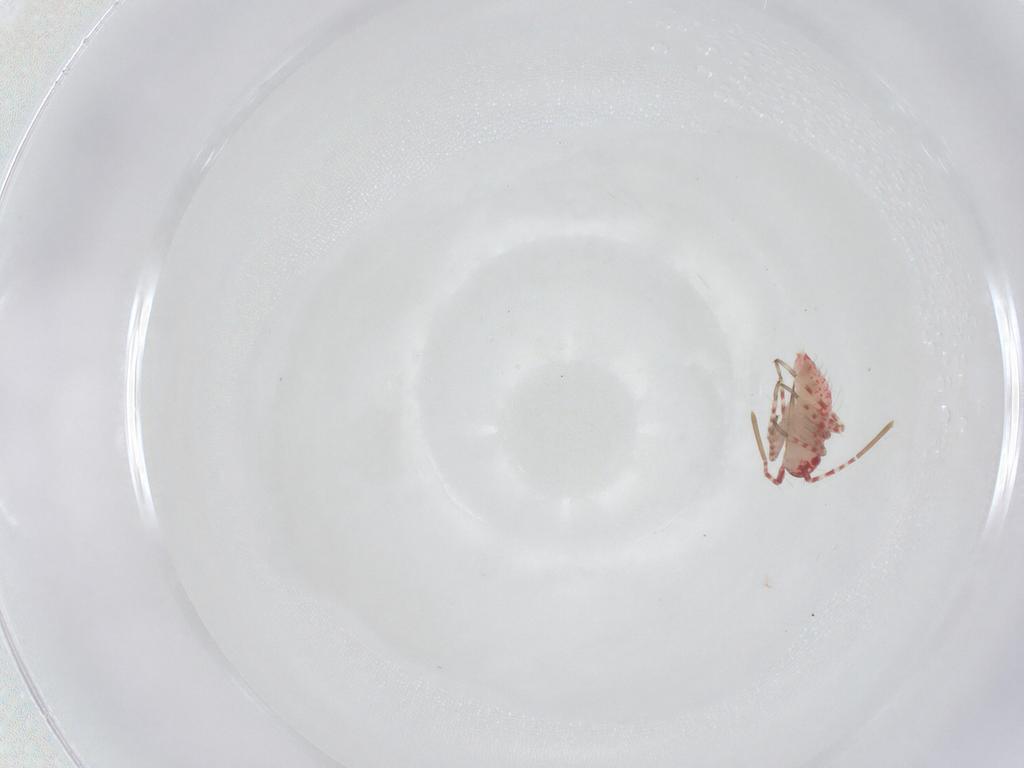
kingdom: Animalia
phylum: Arthropoda
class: Insecta
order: Hemiptera
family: Miridae
